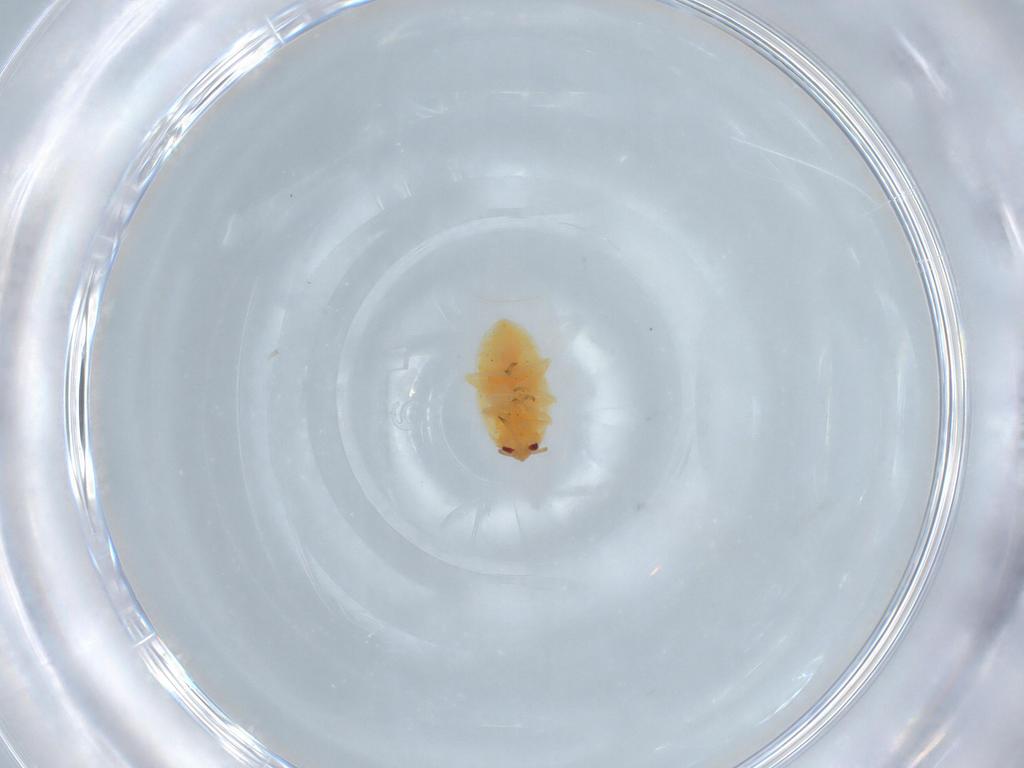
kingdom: Animalia
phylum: Arthropoda
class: Insecta
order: Hemiptera
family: Anthocoridae
